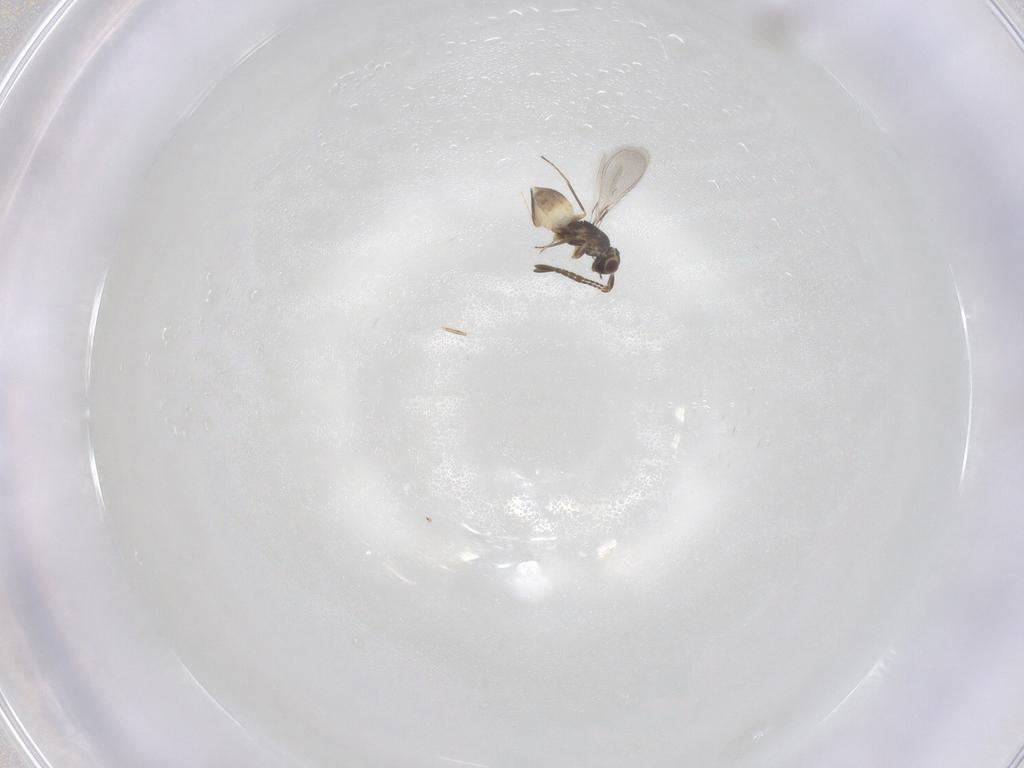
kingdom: Animalia
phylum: Arthropoda
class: Insecta
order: Hymenoptera
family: Mymaridae
